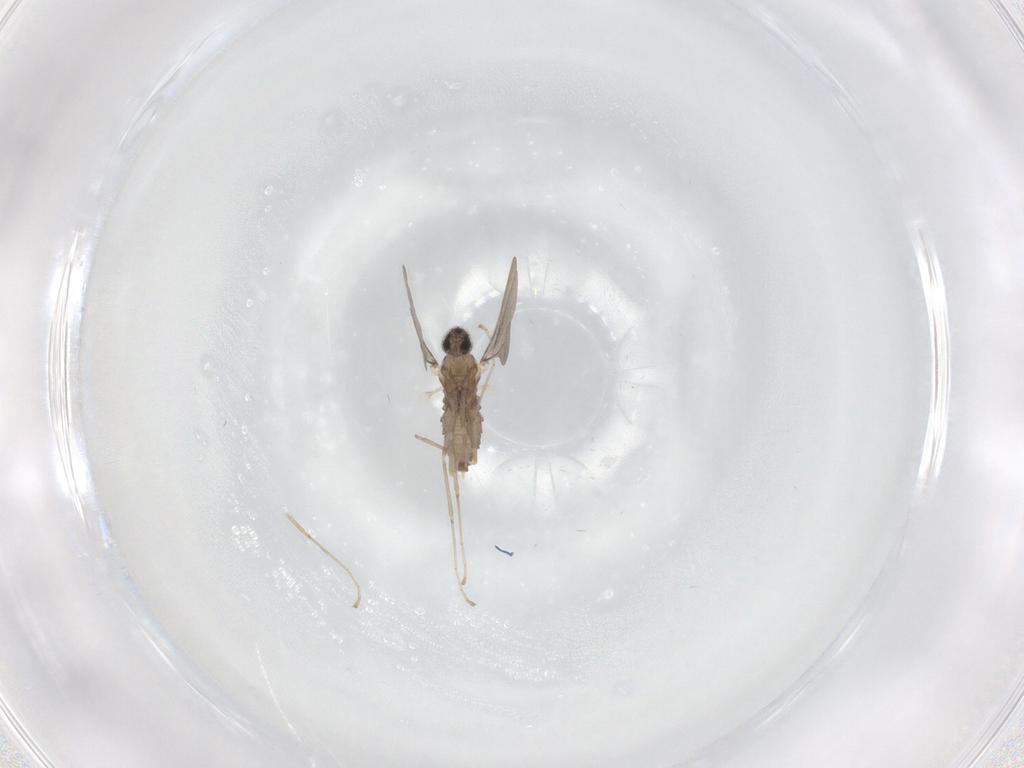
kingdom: Animalia
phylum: Arthropoda
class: Insecta
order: Diptera
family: Cecidomyiidae
